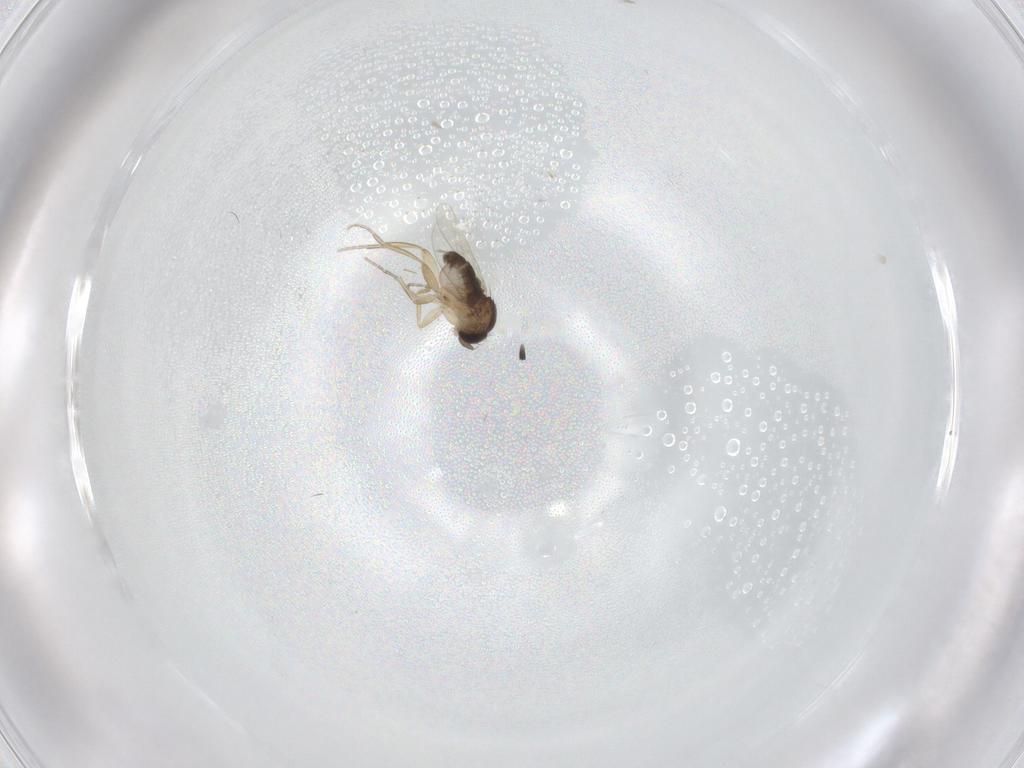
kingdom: Animalia
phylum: Arthropoda
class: Insecta
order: Diptera
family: Phoridae
